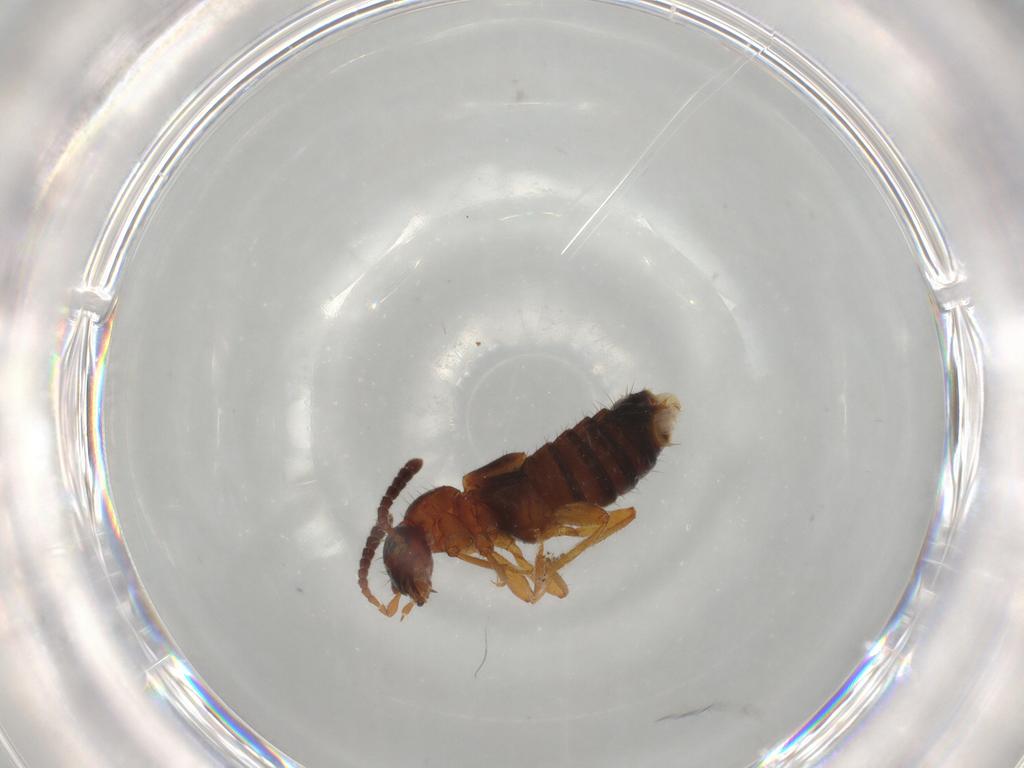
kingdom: Animalia
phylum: Arthropoda
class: Insecta
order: Coleoptera
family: Staphylinidae
